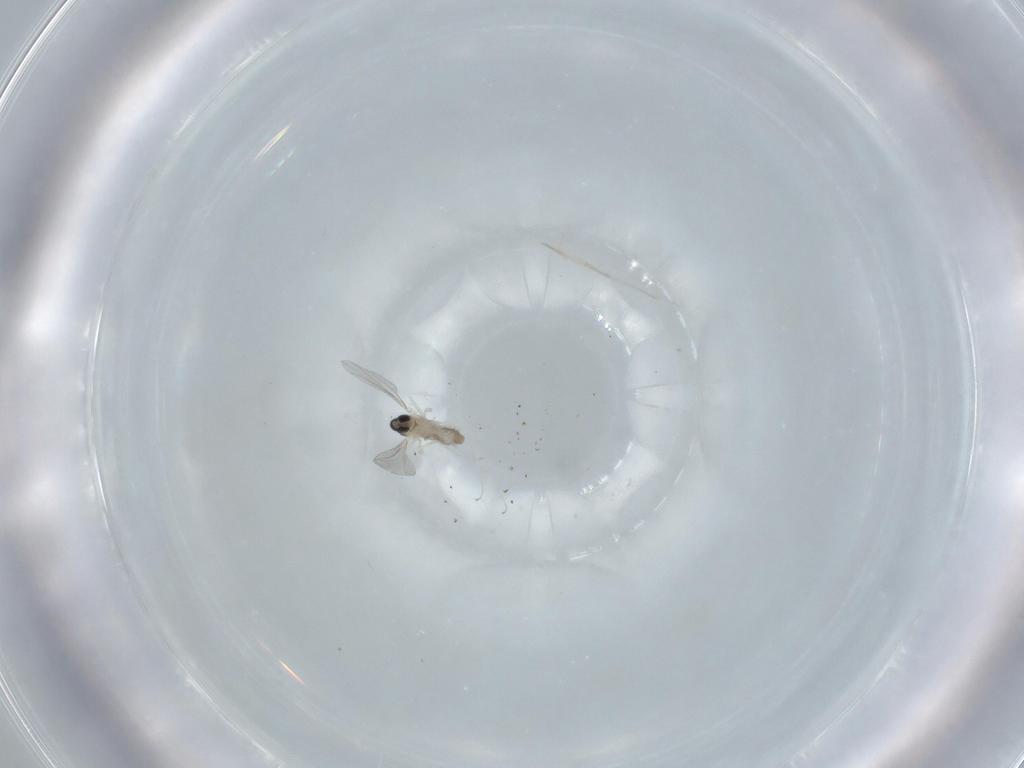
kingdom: Animalia
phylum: Arthropoda
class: Insecta
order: Diptera
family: Cecidomyiidae
